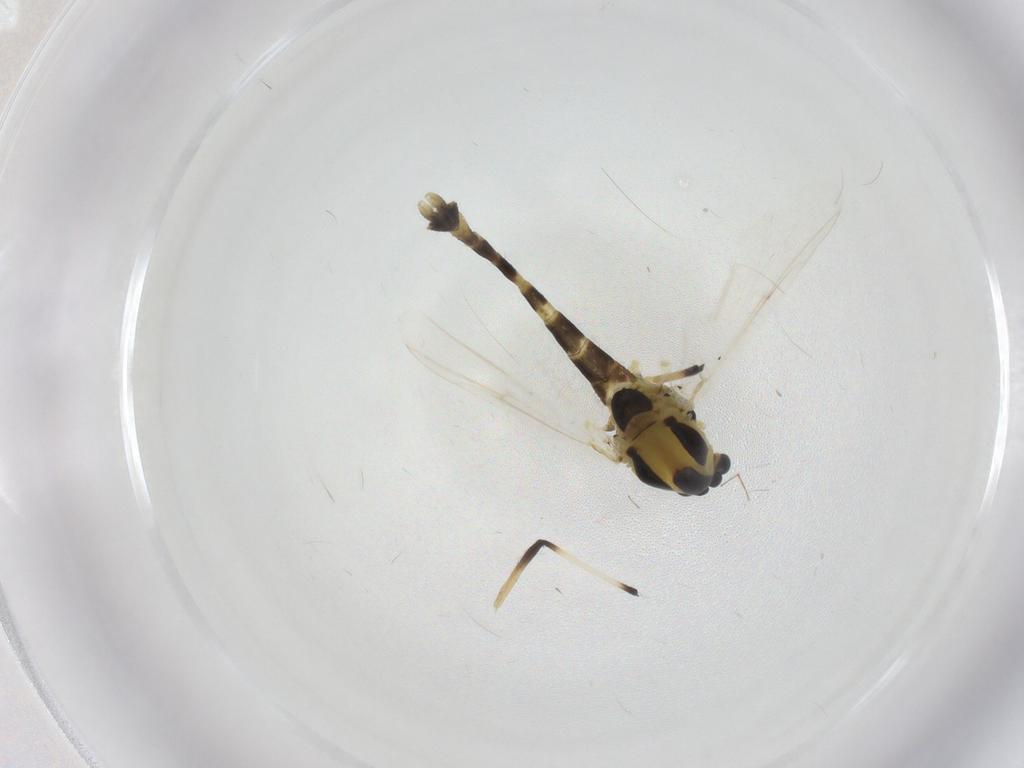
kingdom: Animalia
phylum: Arthropoda
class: Insecta
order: Diptera
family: Chironomidae
